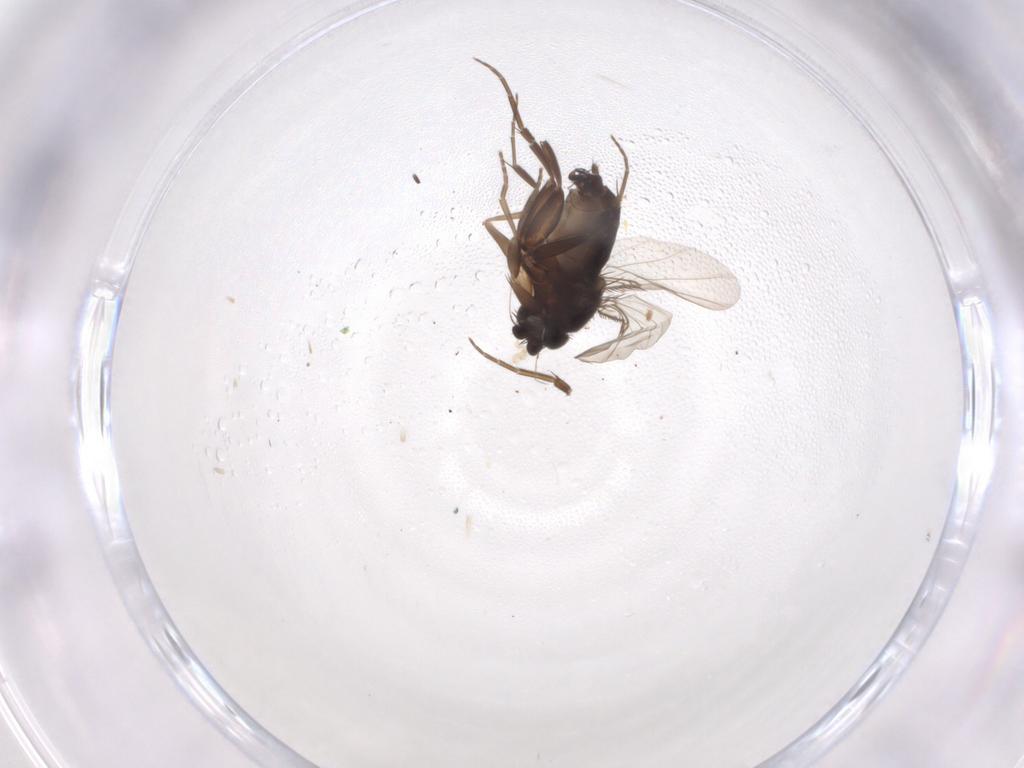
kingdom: Animalia
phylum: Arthropoda
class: Insecta
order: Diptera
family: Phoridae
